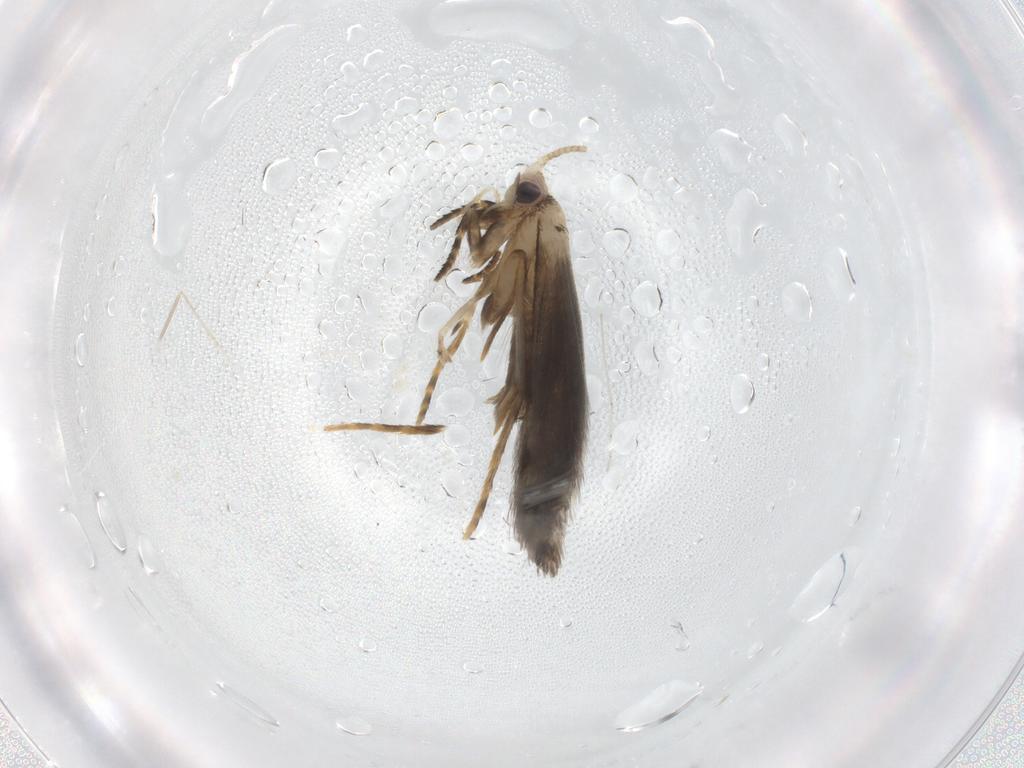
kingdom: Animalia
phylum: Arthropoda
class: Insecta
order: Lepidoptera
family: Tineidae
